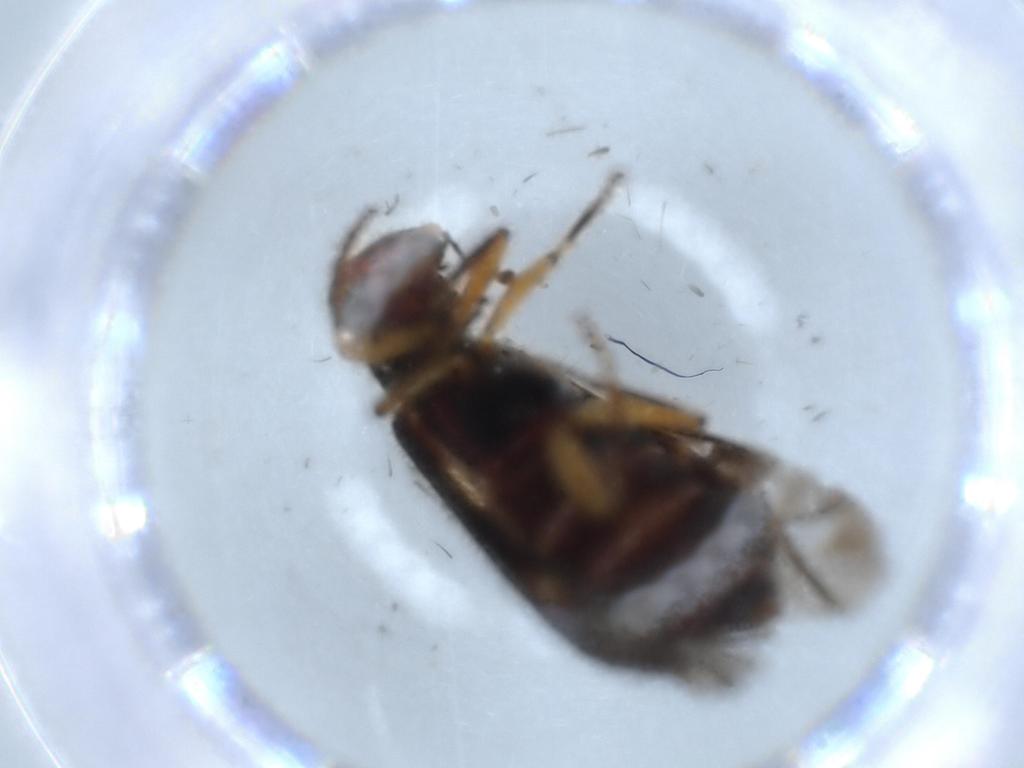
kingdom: Animalia
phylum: Arthropoda
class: Insecta
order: Coleoptera
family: Cleridae
